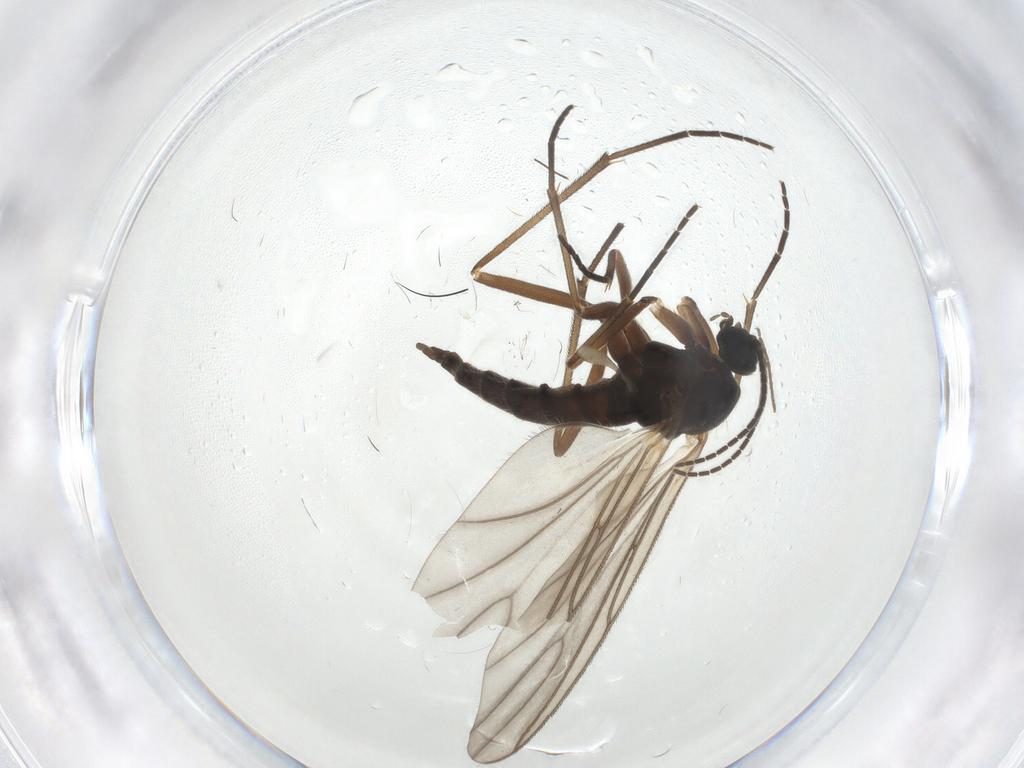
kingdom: Animalia
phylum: Arthropoda
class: Insecta
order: Diptera
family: Sciaridae
